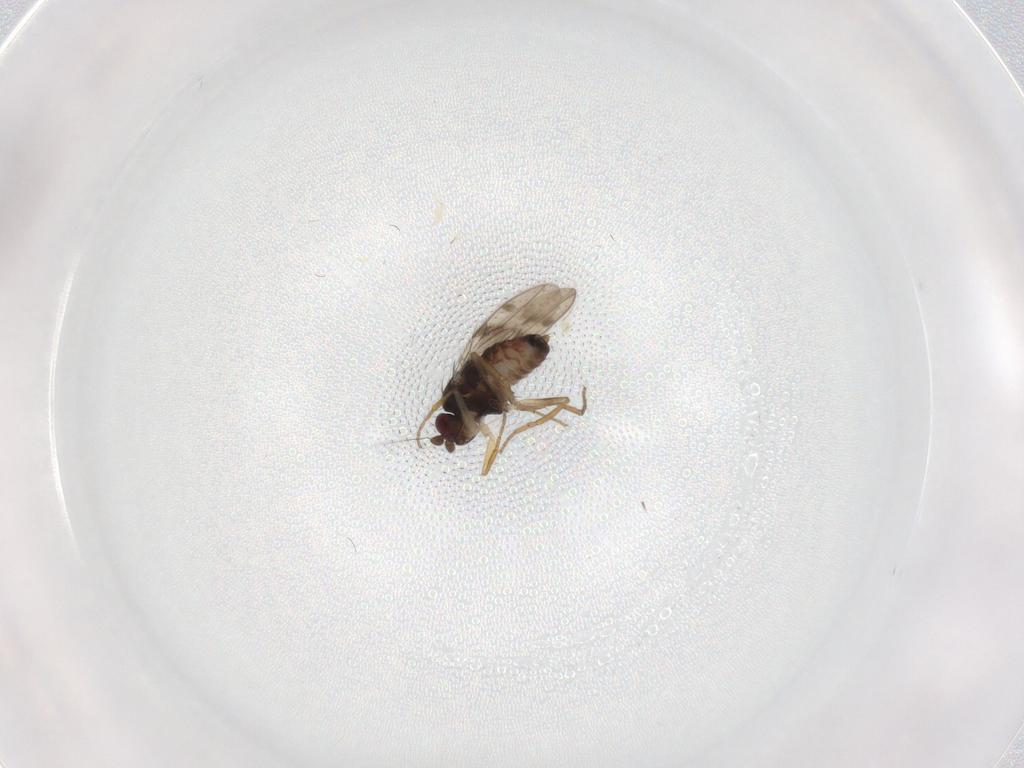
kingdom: Animalia
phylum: Arthropoda
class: Insecta
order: Diptera
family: Sphaeroceridae
